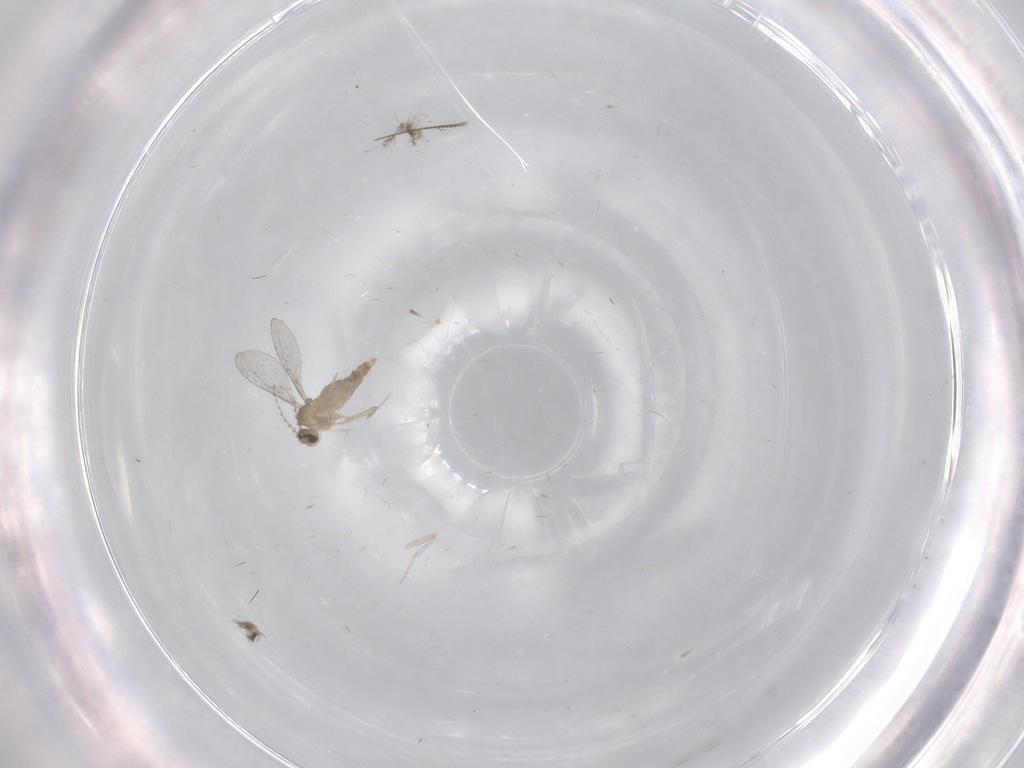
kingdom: Animalia
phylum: Arthropoda
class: Insecta
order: Diptera
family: Cecidomyiidae
